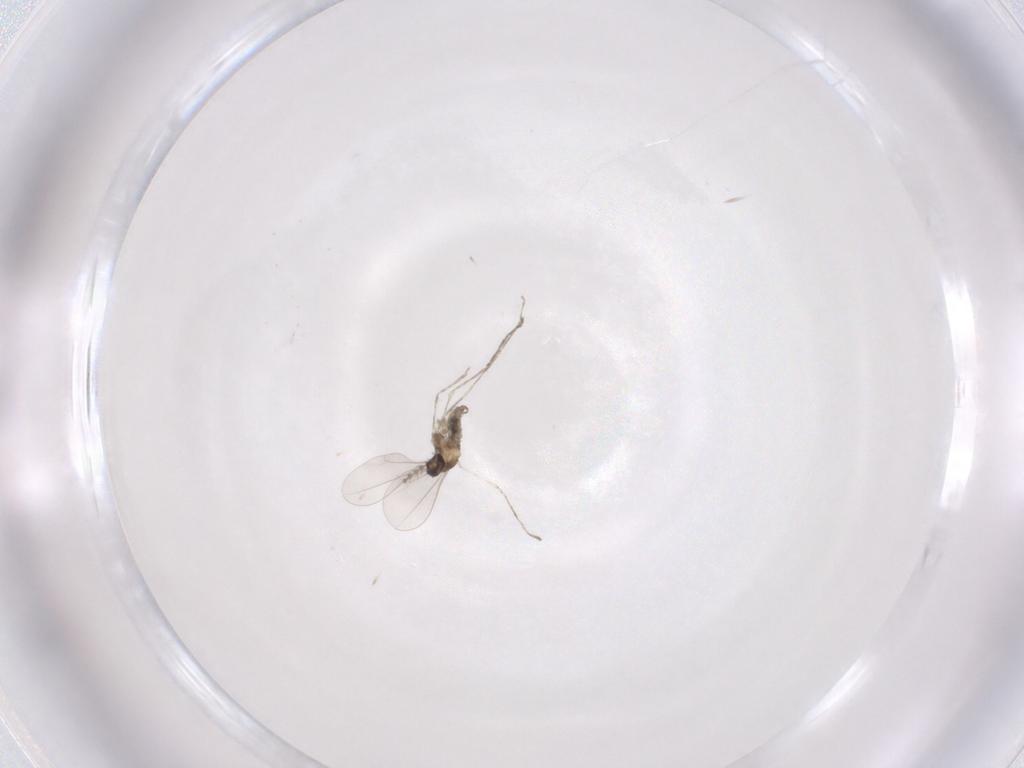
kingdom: Animalia
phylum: Arthropoda
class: Insecta
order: Diptera
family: Cecidomyiidae
